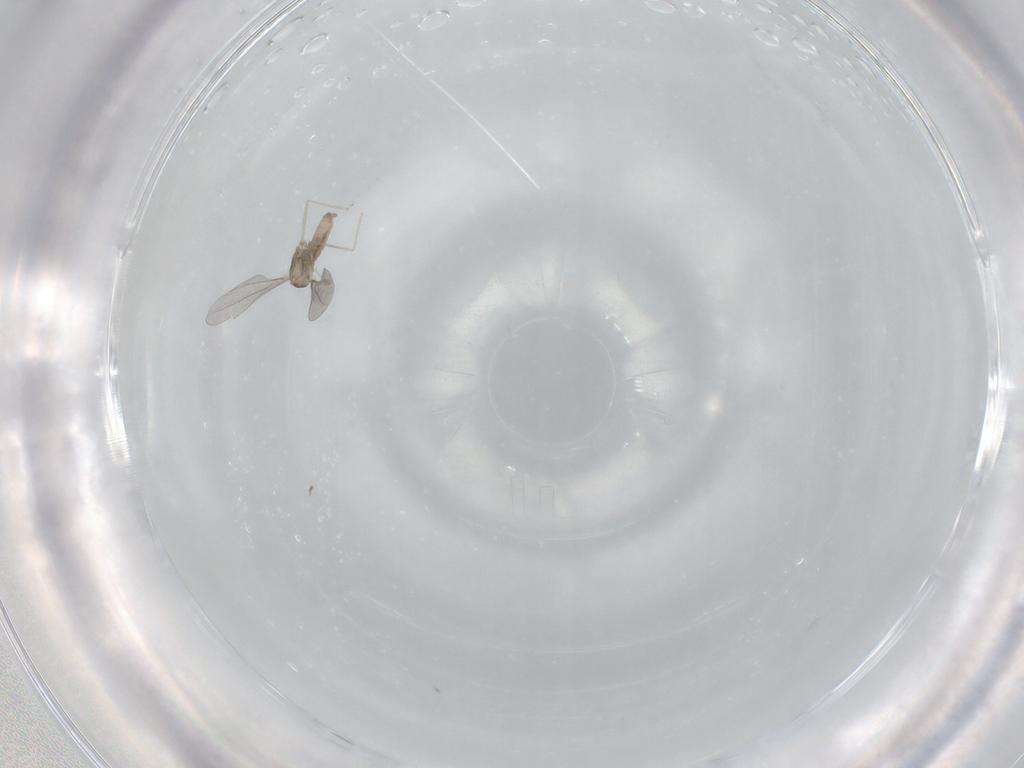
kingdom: Animalia
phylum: Arthropoda
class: Insecta
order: Diptera
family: Chironomidae
